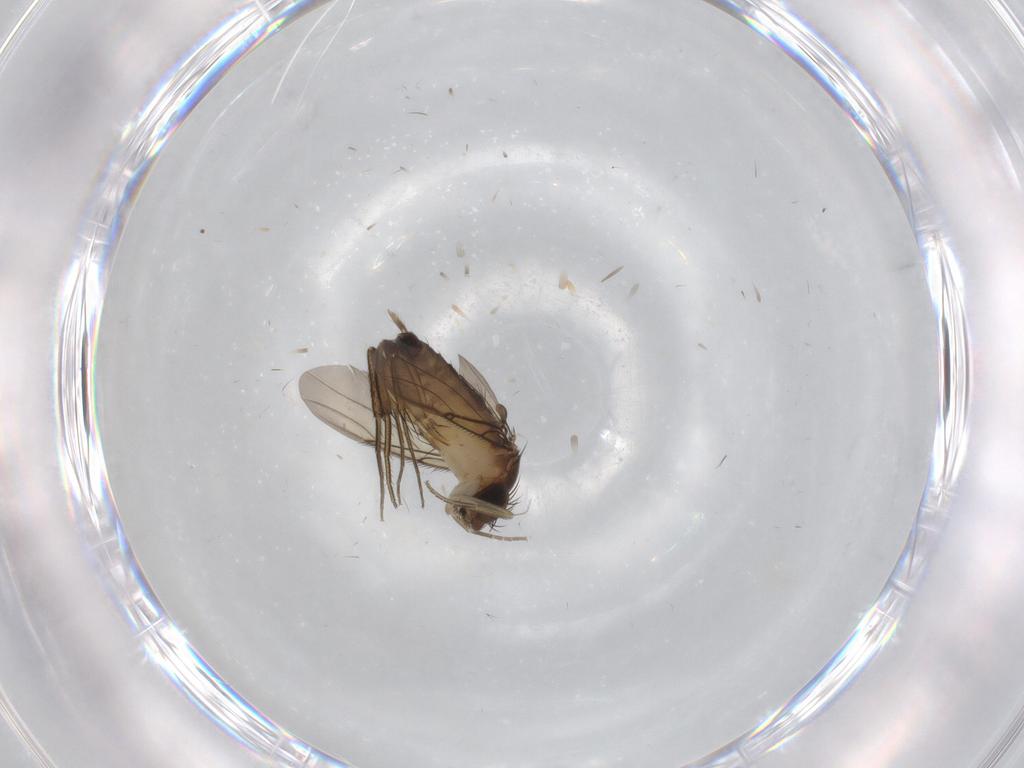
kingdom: Animalia
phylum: Arthropoda
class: Insecta
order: Diptera
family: Phoridae
